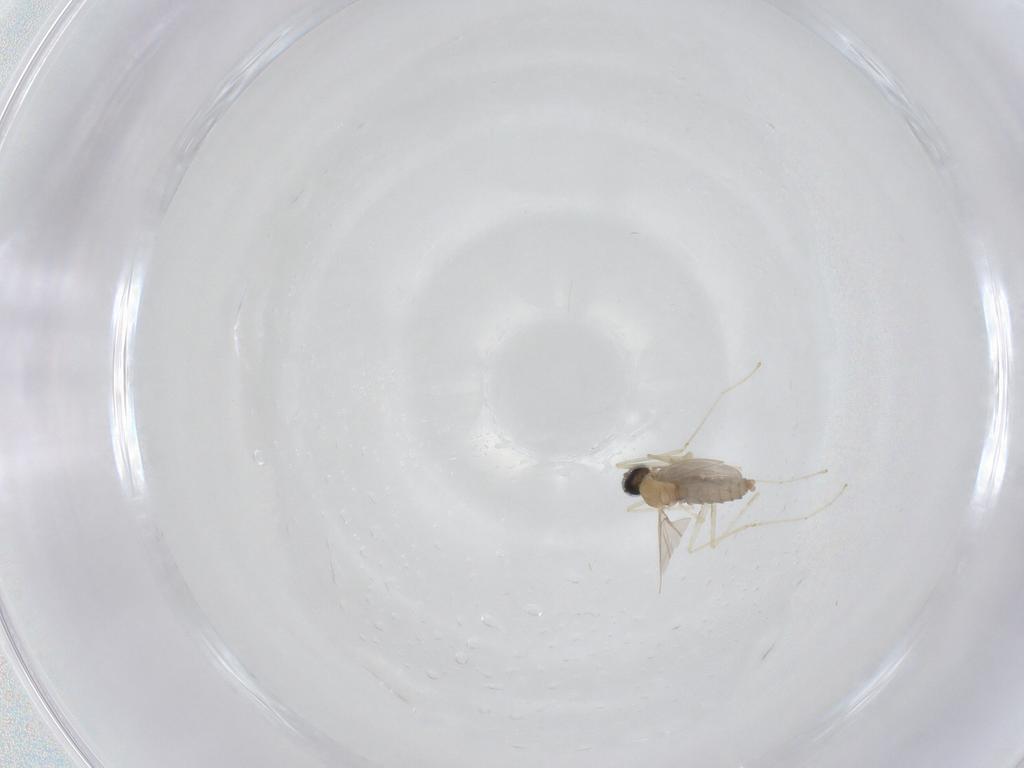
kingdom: Animalia
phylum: Arthropoda
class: Insecta
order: Diptera
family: Cecidomyiidae
